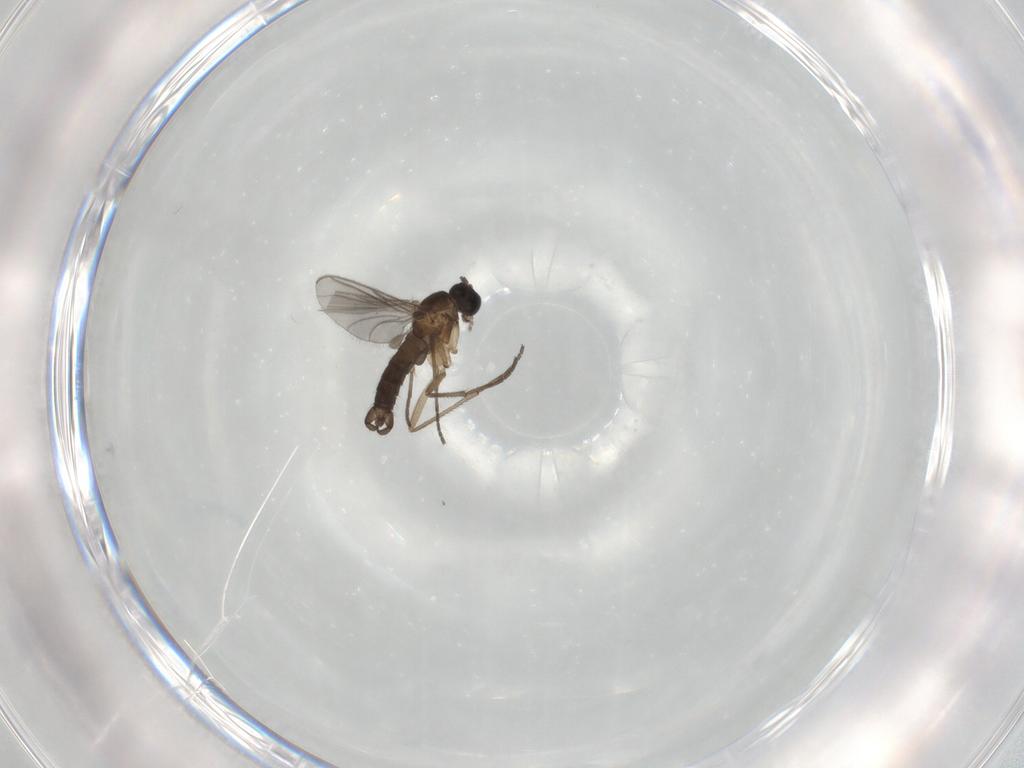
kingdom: Animalia
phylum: Arthropoda
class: Insecta
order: Diptera
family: Sciaridae
